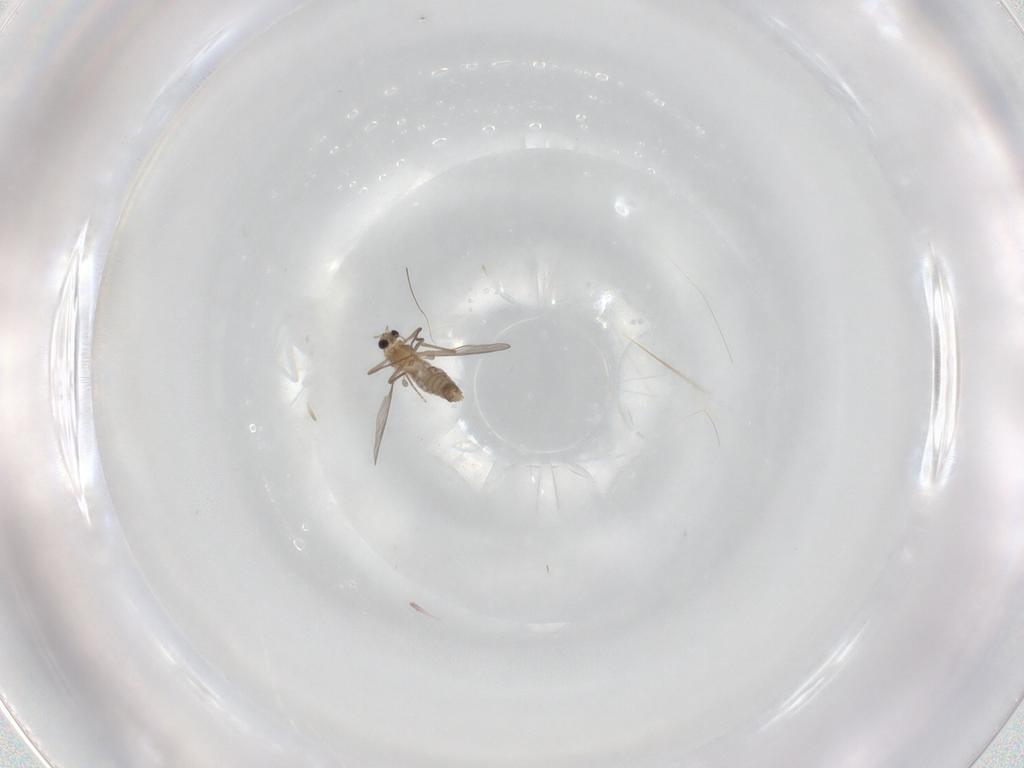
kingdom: Animalia
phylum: Arthropoda
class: Insecta
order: Diptera
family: Chironomidae
